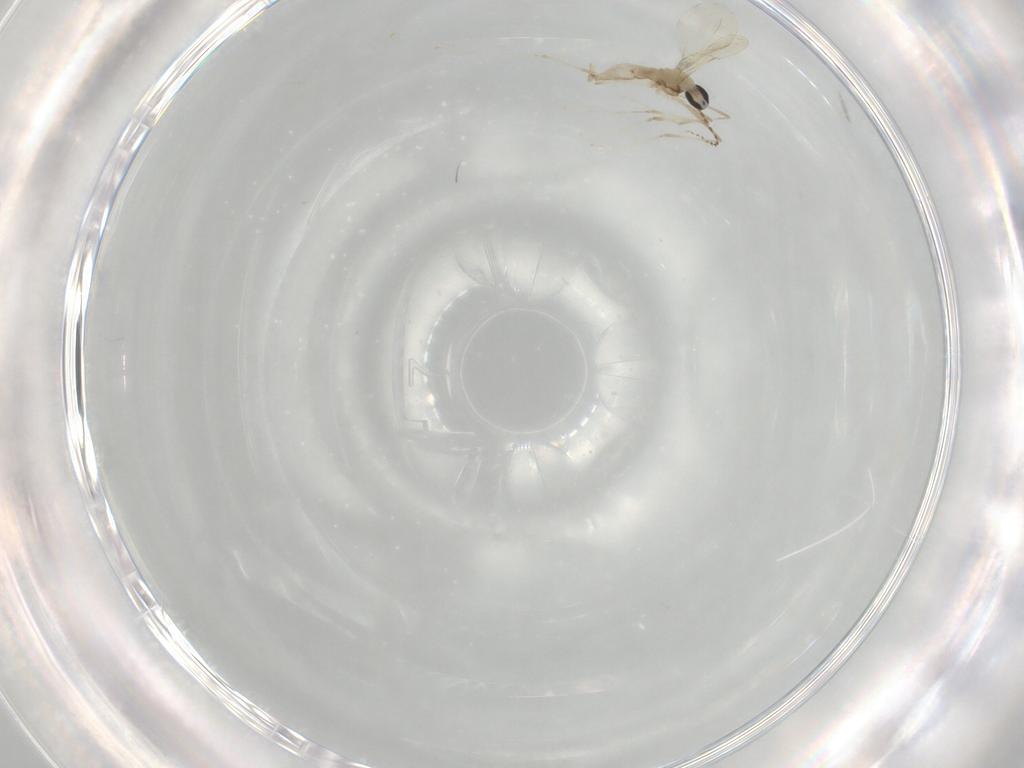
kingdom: Animalia
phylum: Arthropoda
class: Insecta
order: Diptera
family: Cecidomyiidae
